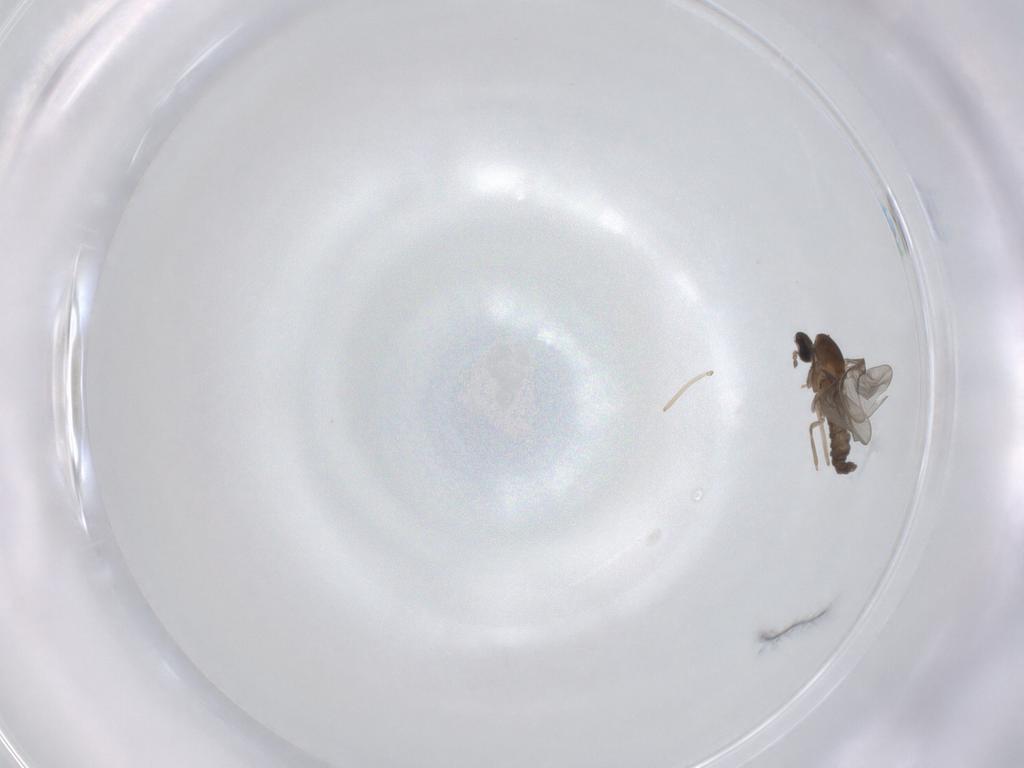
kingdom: Animalia
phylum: Arthropoda
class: Insecta
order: Diptera
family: Cecidomyiidae
